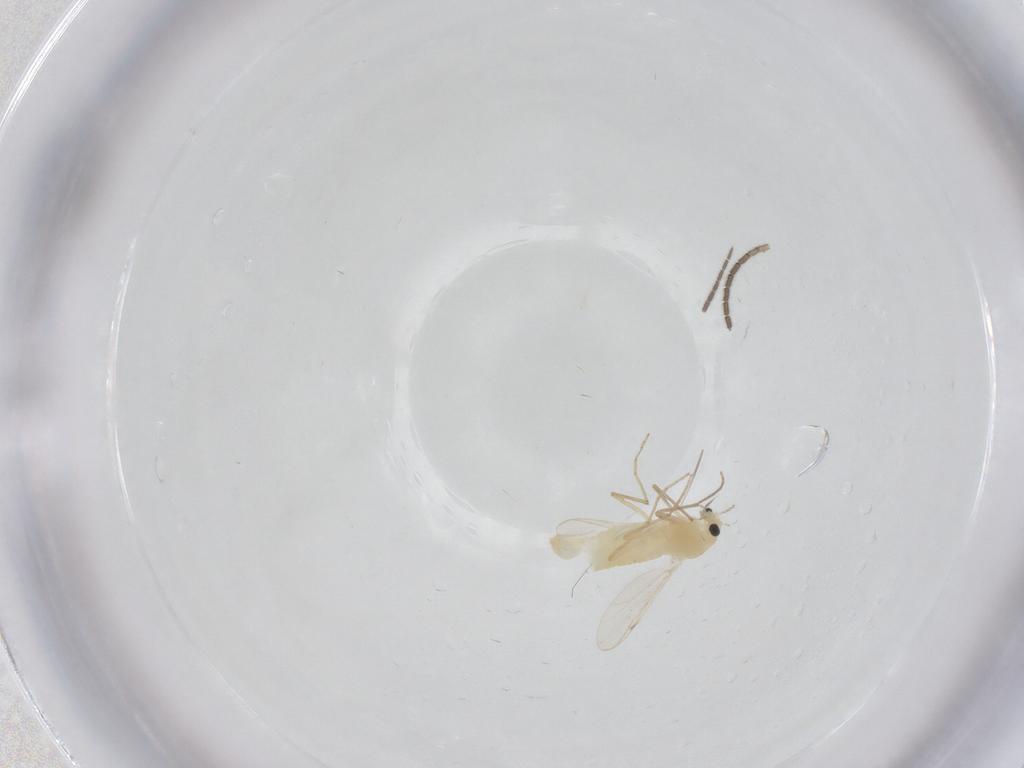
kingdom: Animalia
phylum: Arthropoda
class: Insecta
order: Diptera
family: Chironomidae
